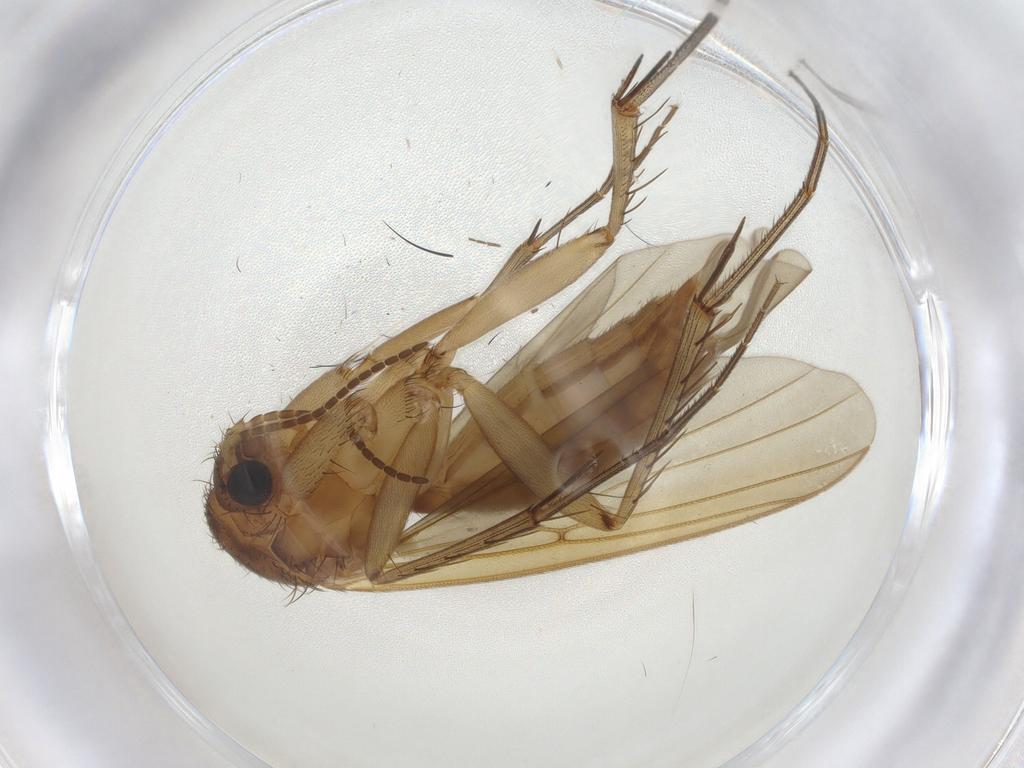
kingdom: Animalia
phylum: Arthropoda
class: Insecta
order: Diptera
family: Mycetophilidae
